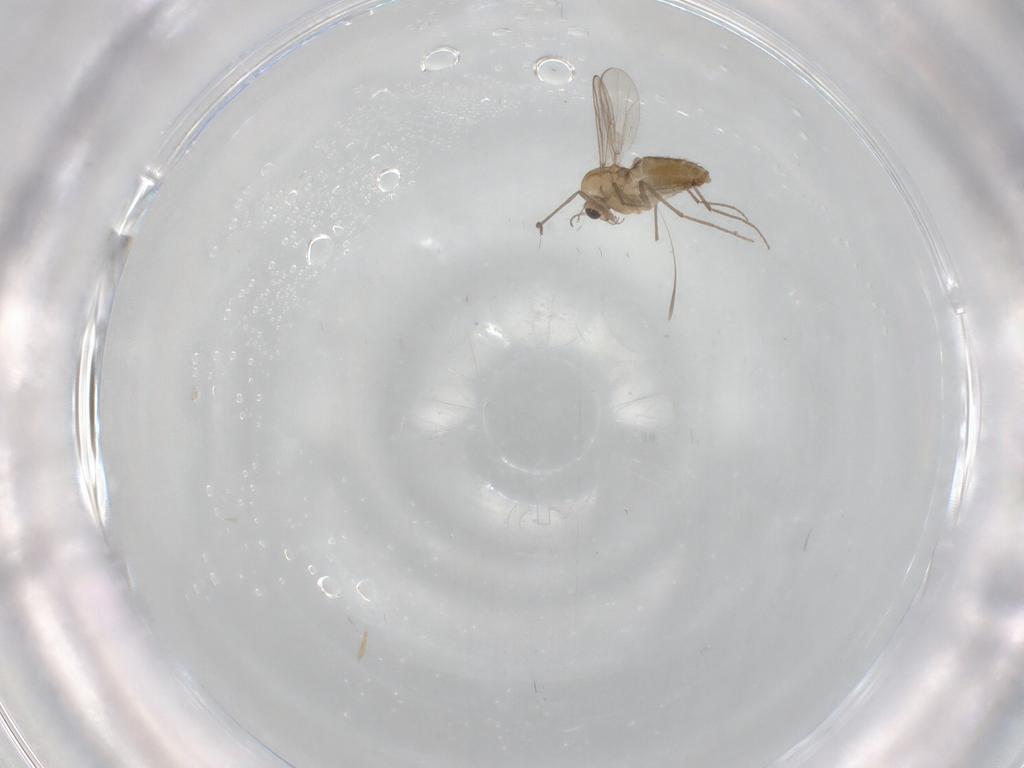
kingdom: Animalia
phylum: Arthropoda
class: Insecta
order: Diptera
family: Chironomidae
